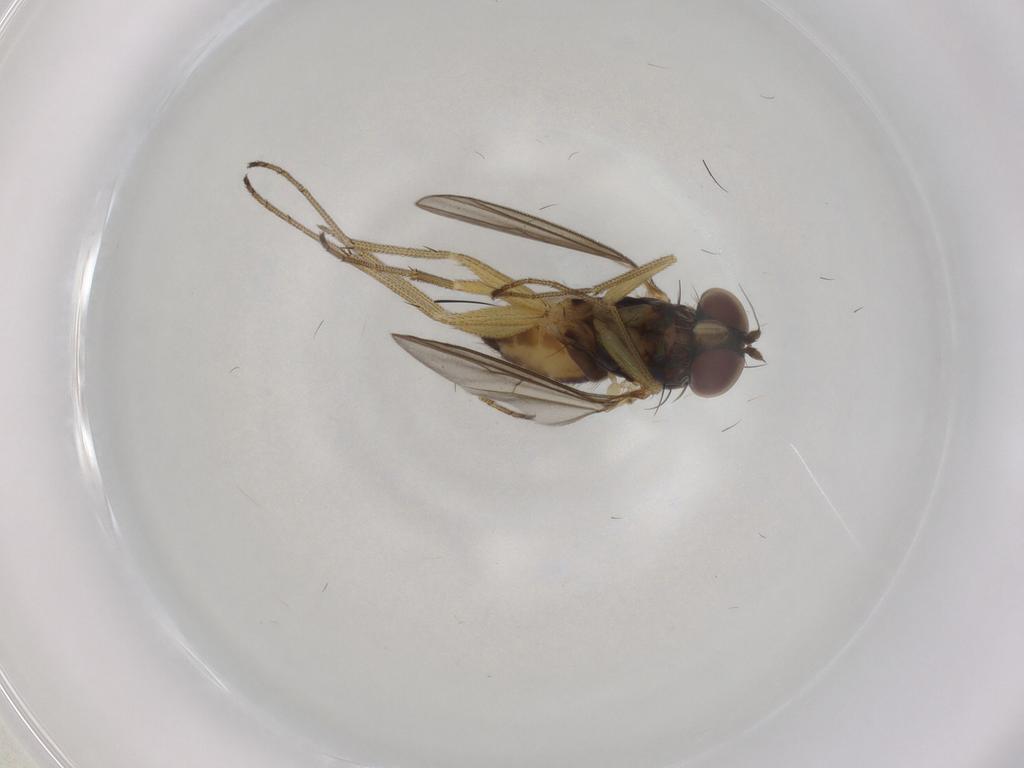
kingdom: Animalia
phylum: Arthropoda
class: Insecta
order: Diptera
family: Dolichopodidae
